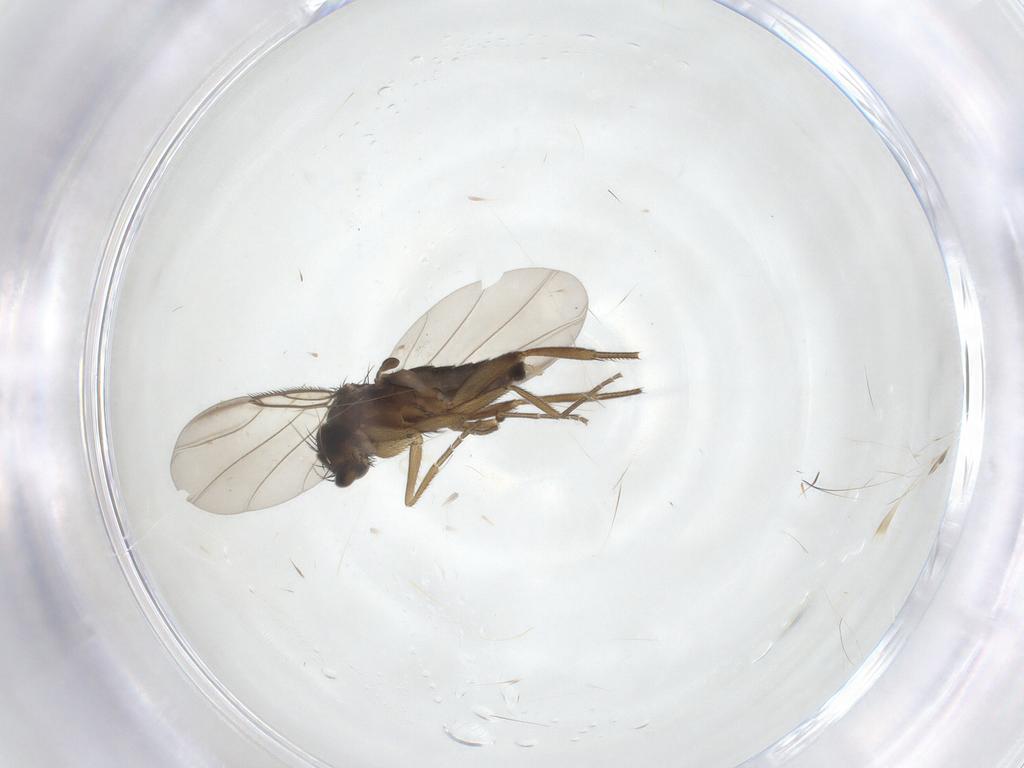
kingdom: Animalia
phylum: Arthropoda
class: Insecta
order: Diptera
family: Phoridae
